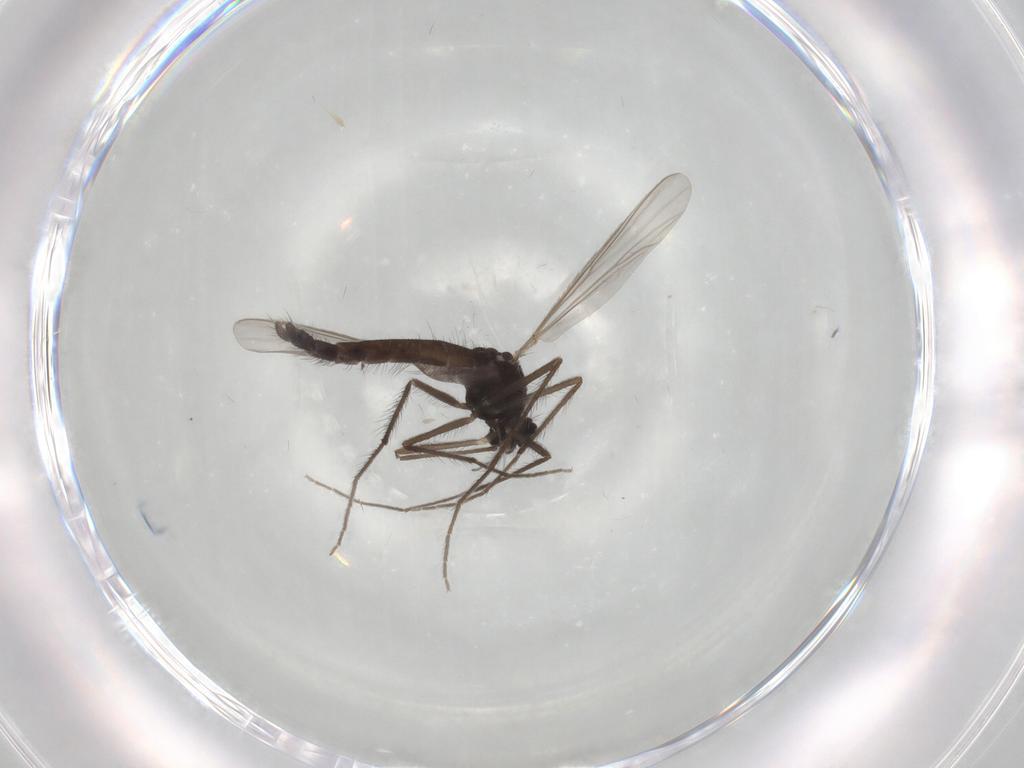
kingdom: Animalia
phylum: Arthropoda
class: Insecta
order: Diptera
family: Chironomidae
